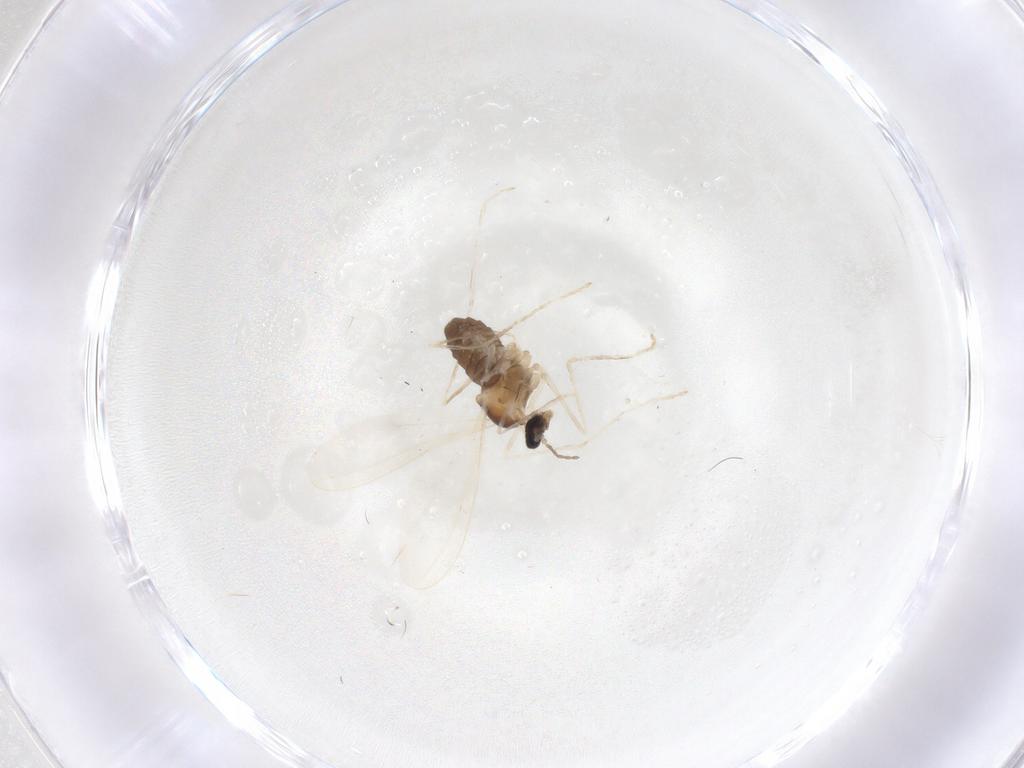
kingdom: Animalia
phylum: Arthropoda
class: Insecta
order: Diptera
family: Cecidomyiidae
